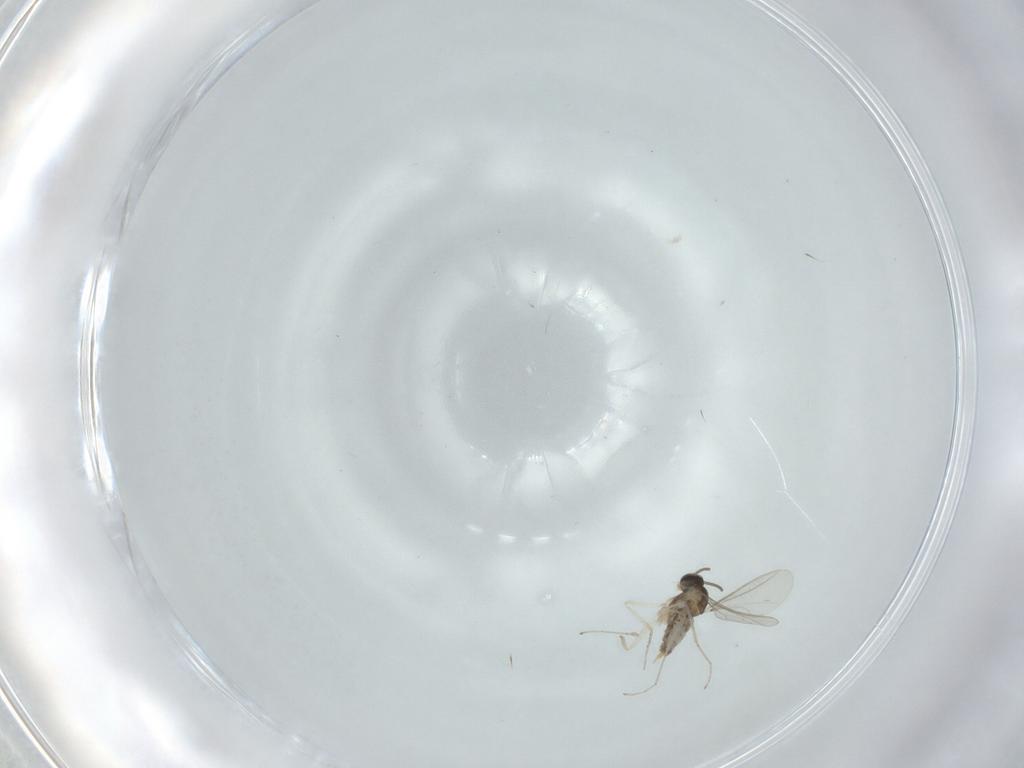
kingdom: Animalia
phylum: Arthropoda
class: Insecta
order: Diptera
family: Cecidomyiidae
